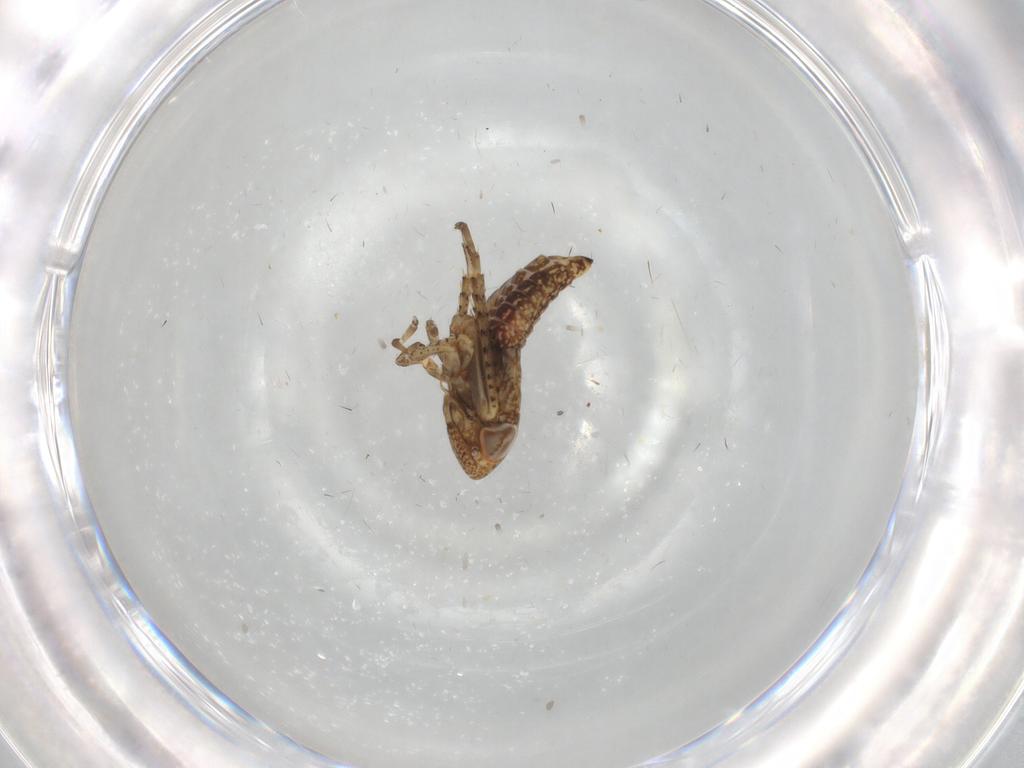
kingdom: Animalia
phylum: Arthropoda
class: Insecta
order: Hemiptera
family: Cicadellidae
